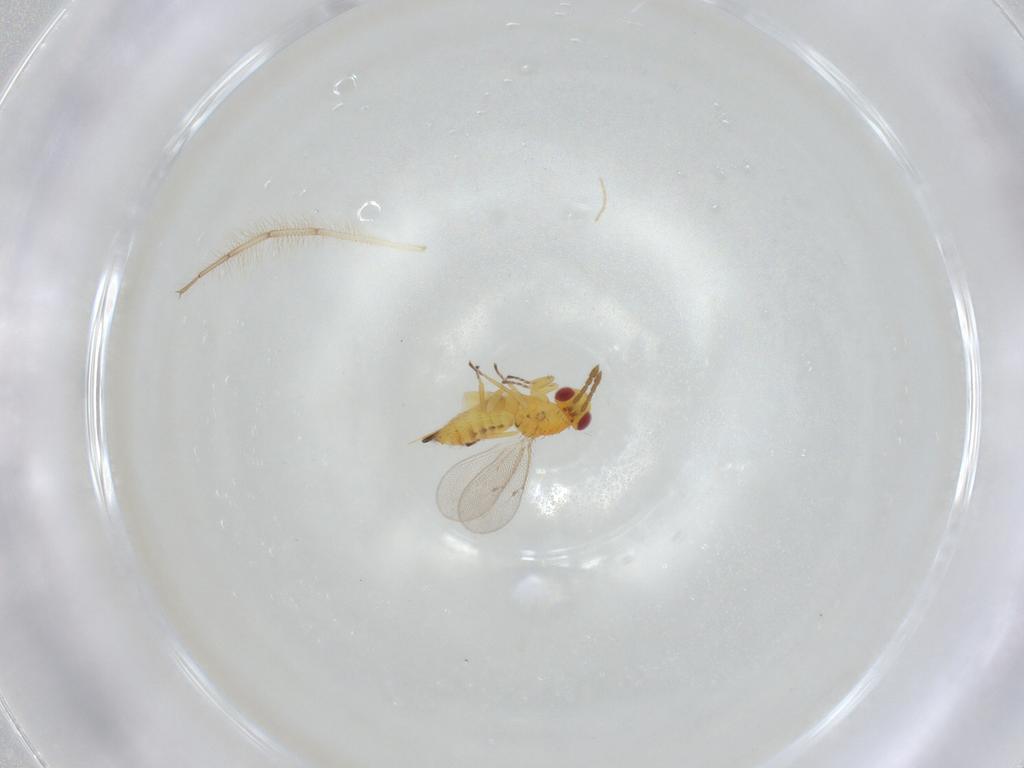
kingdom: Animalia
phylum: Arthropoda
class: Insecta
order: Hymenoptera
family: Eulophidae
